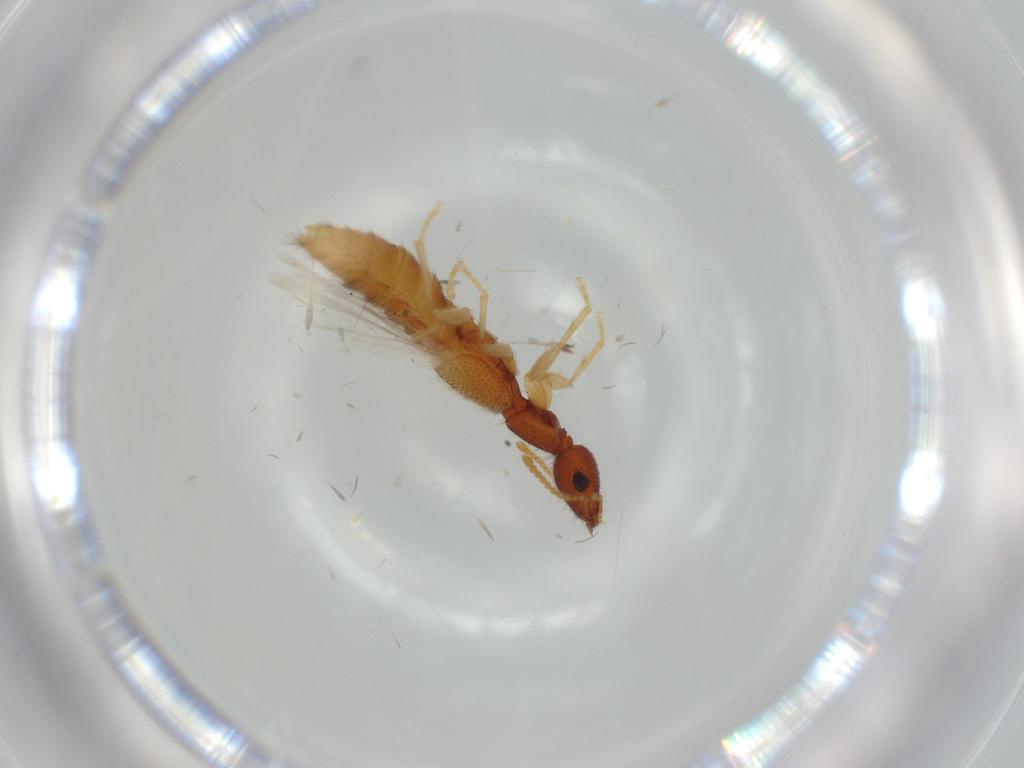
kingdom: Animalia
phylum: Arthropoda
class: Insecta
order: Coleoptera
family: Staphylinidae
